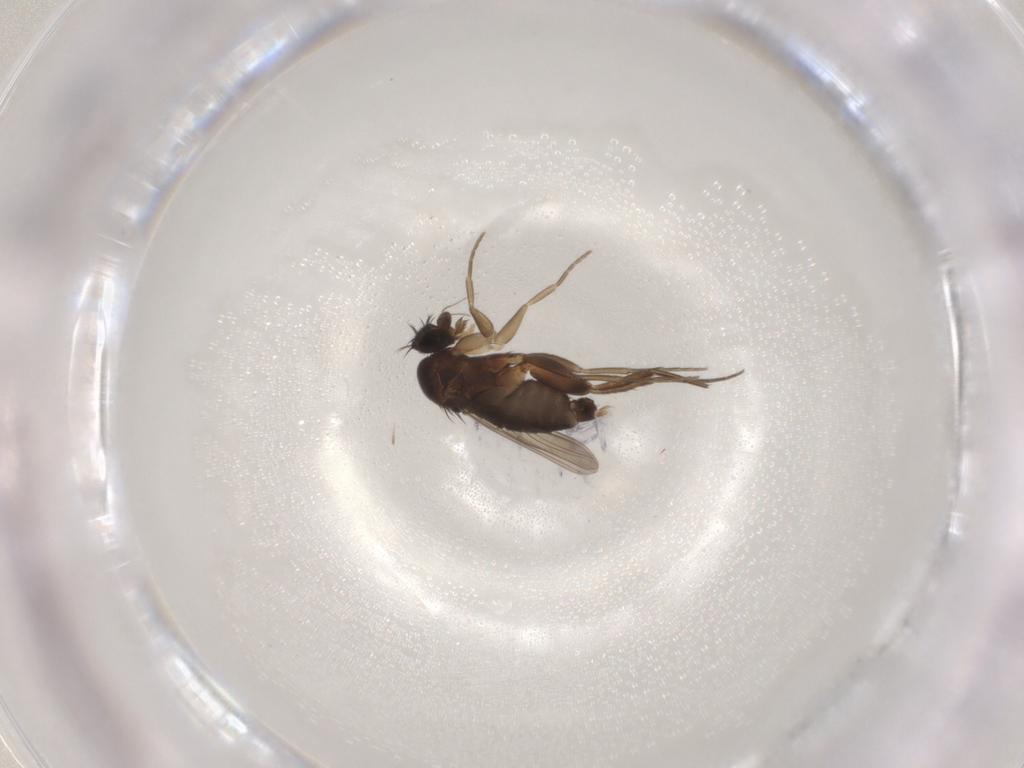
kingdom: Animalia
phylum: Arthropoda
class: Insecta
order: Diptera
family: Phoridae
